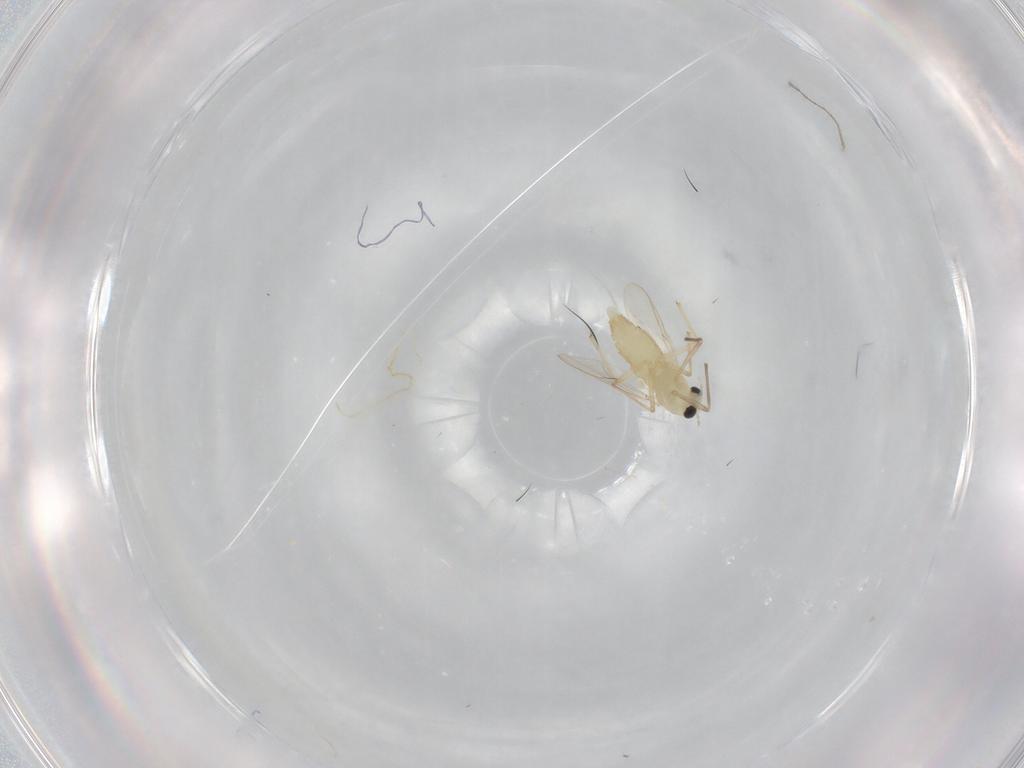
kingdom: Animalia
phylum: Arthropoda
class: Insecta
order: Diptera
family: Chironomidae
